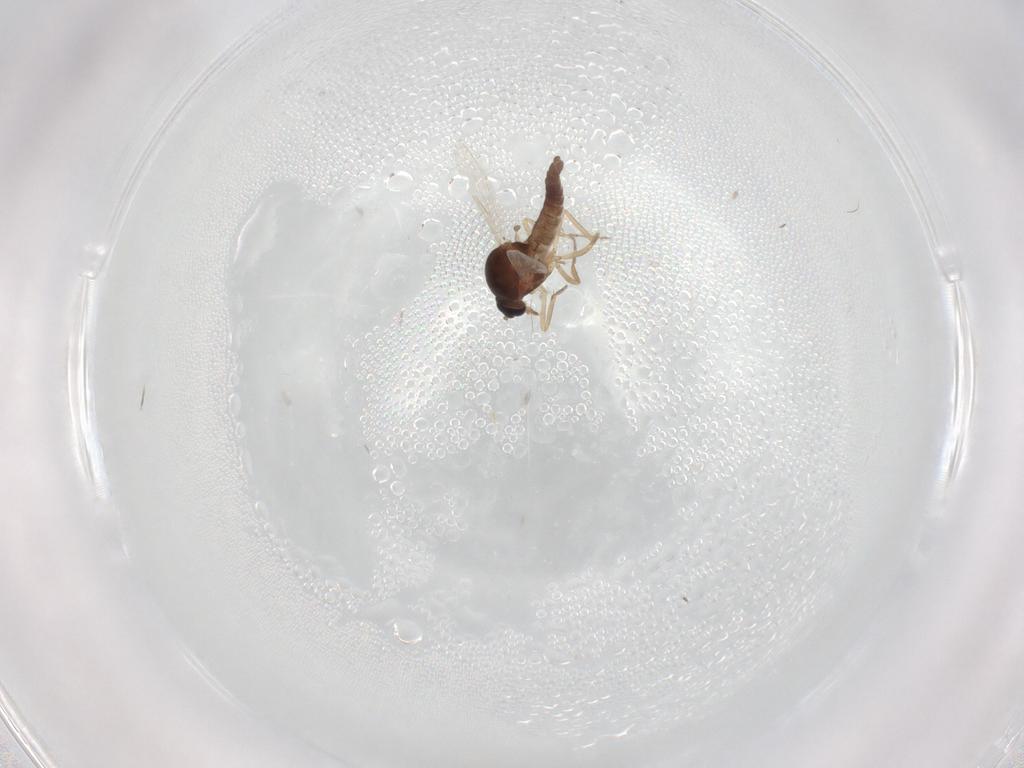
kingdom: Animalia
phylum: Arthropoda
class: Insecta
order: Diptera
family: Ceratopogonidae
